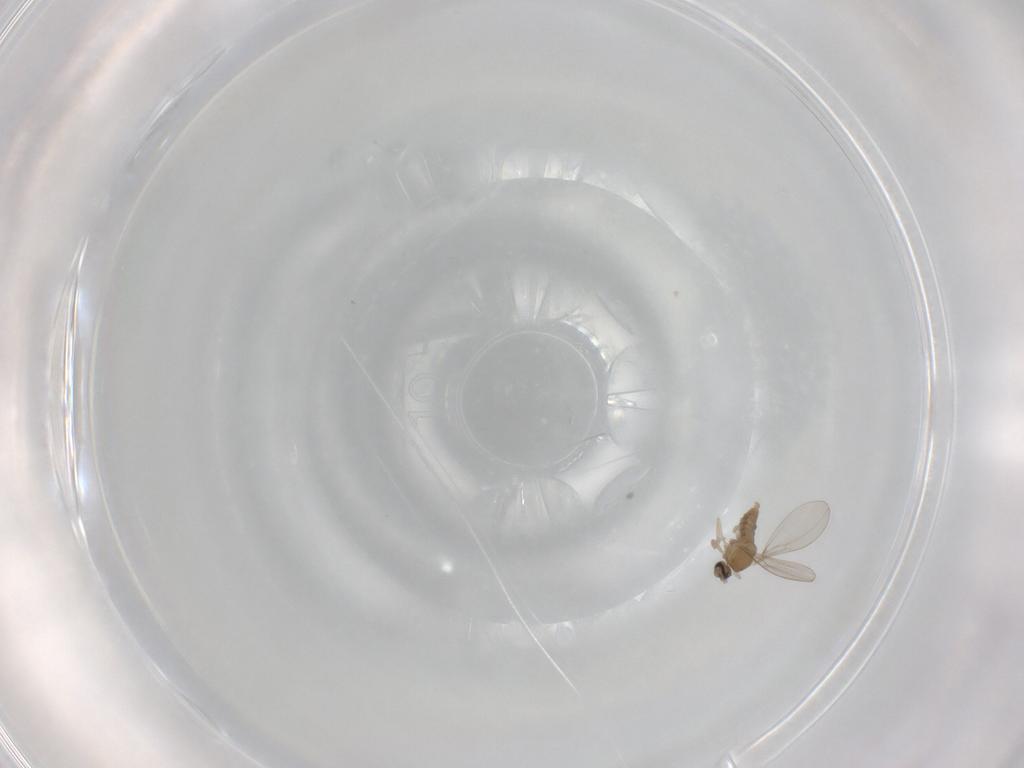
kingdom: Animalia
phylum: Arthropoda
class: Insecta
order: Diptera
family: Cecidomyiidae
